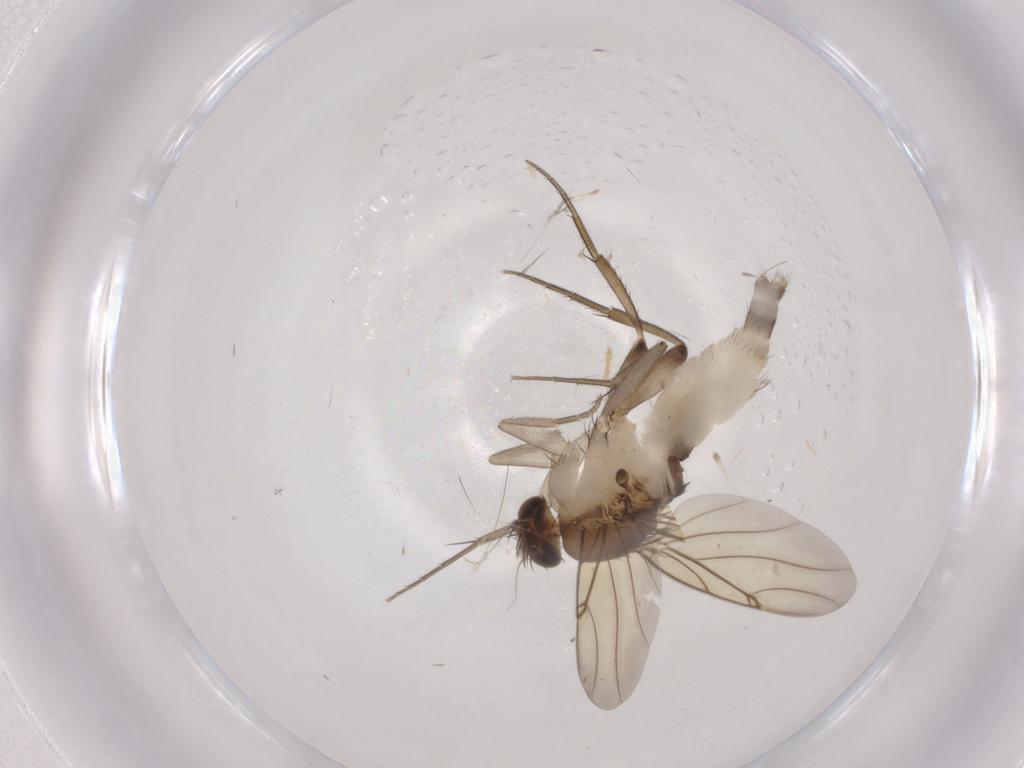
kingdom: Animalia
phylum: Arthropoda
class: Insecta
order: Diptera
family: Phoridae
